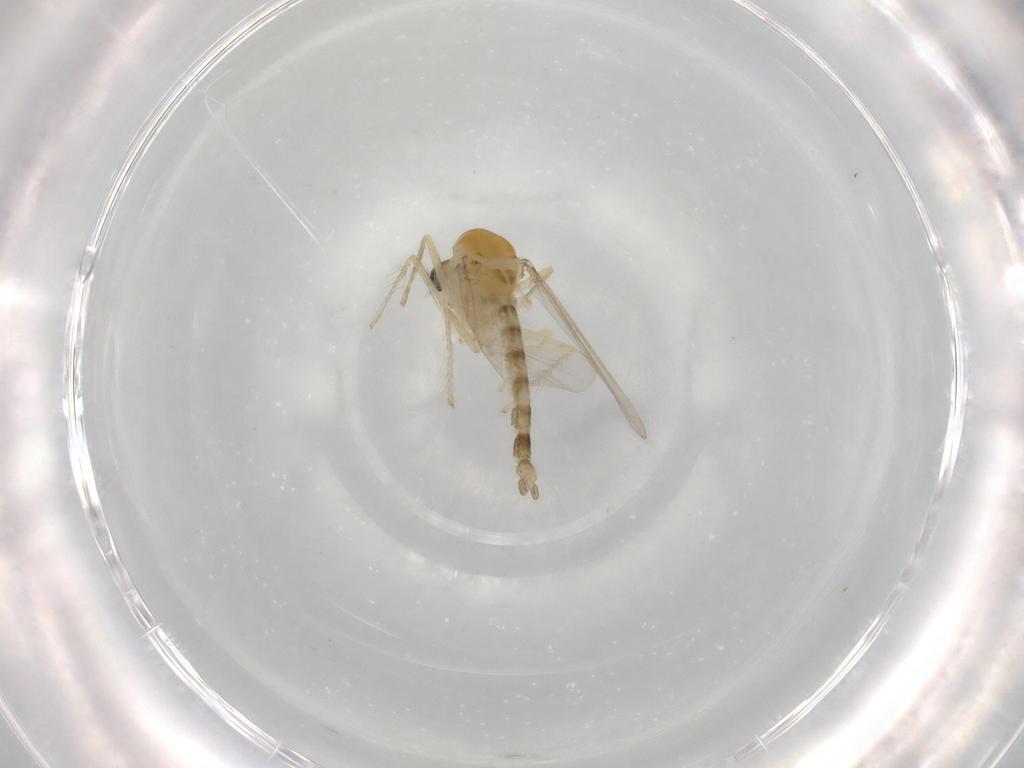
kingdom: Animalia
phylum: Arthropoda
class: Insecta
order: Diptera
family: Chironomidae
